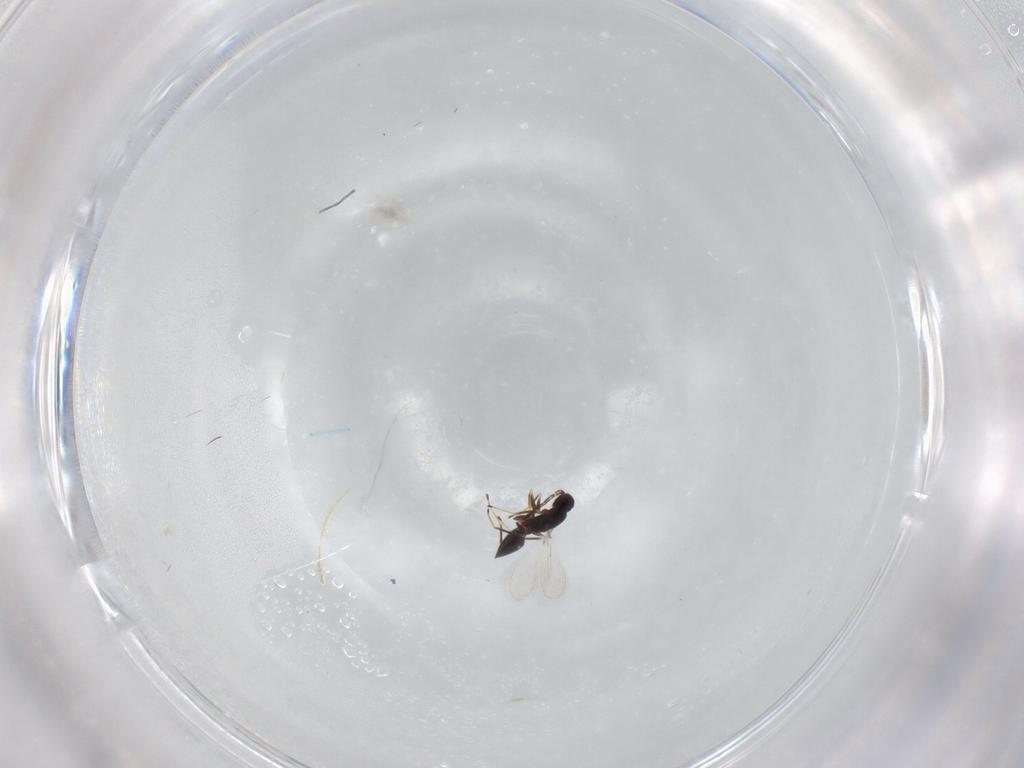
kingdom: Animalia
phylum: Arthropoda
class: Insecta
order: Hymenoptera
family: Mymaridae
